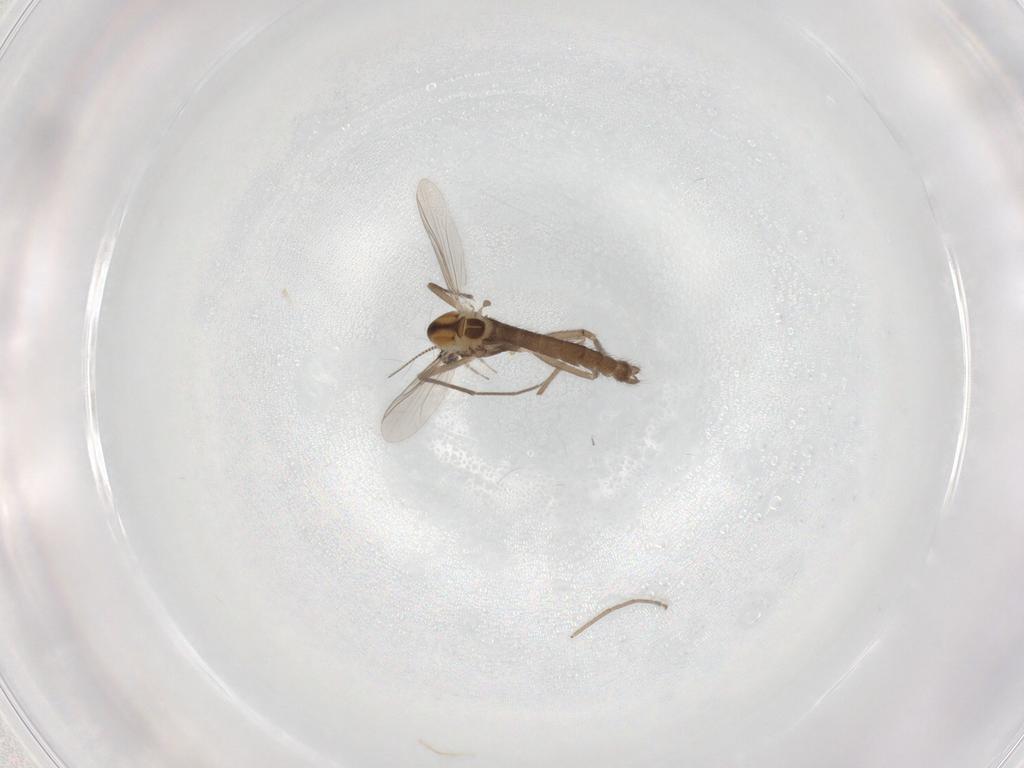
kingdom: Animalia
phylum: Arthropoda
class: Insecta
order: Diptera
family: Chironomidae
